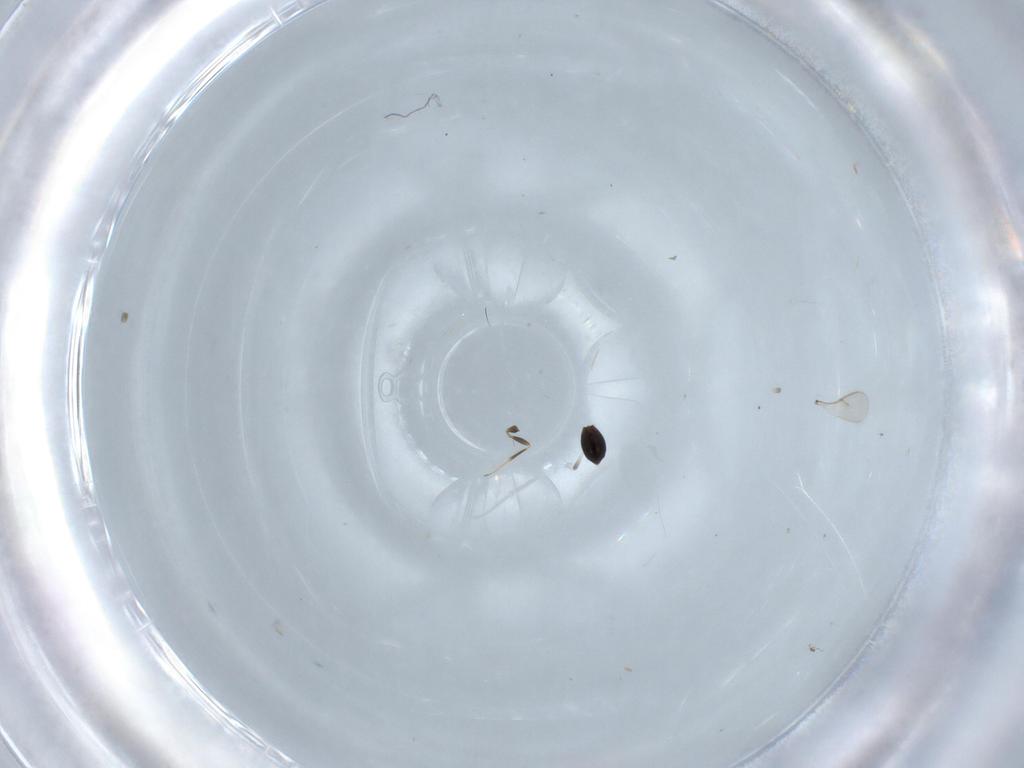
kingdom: Animalia
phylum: Arthropoda
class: Insecta
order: Hymenoptera
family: Scelionidae
